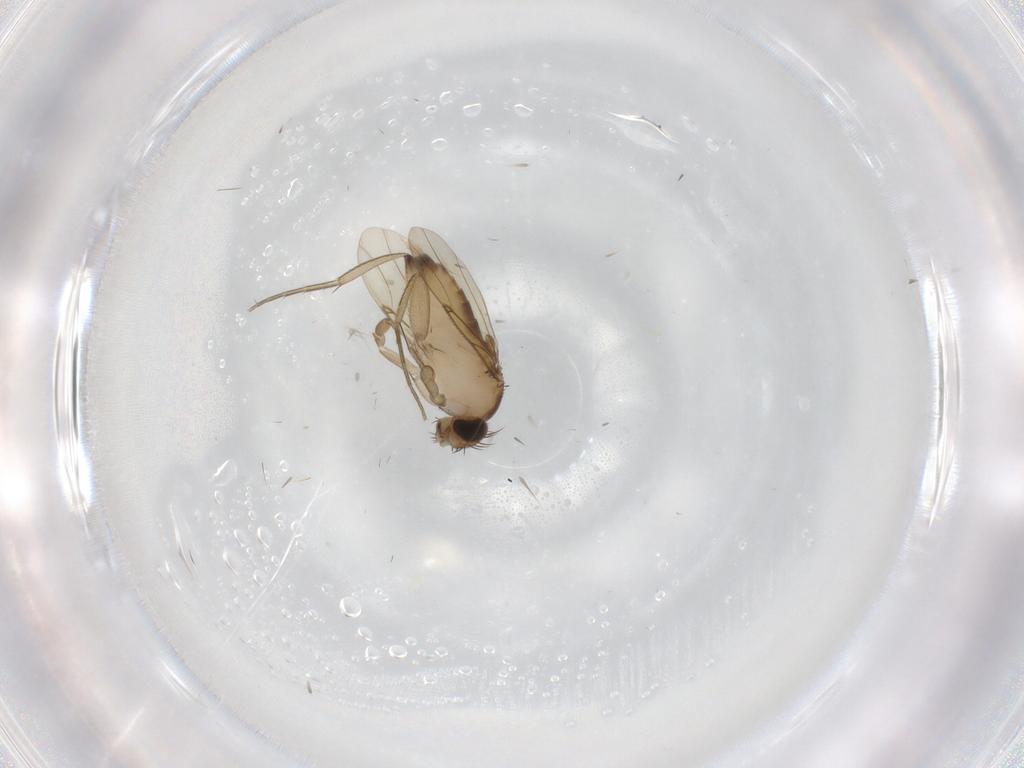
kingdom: Animalia
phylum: Arthropoda
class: Insecta
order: Diptera
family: Phoridae
